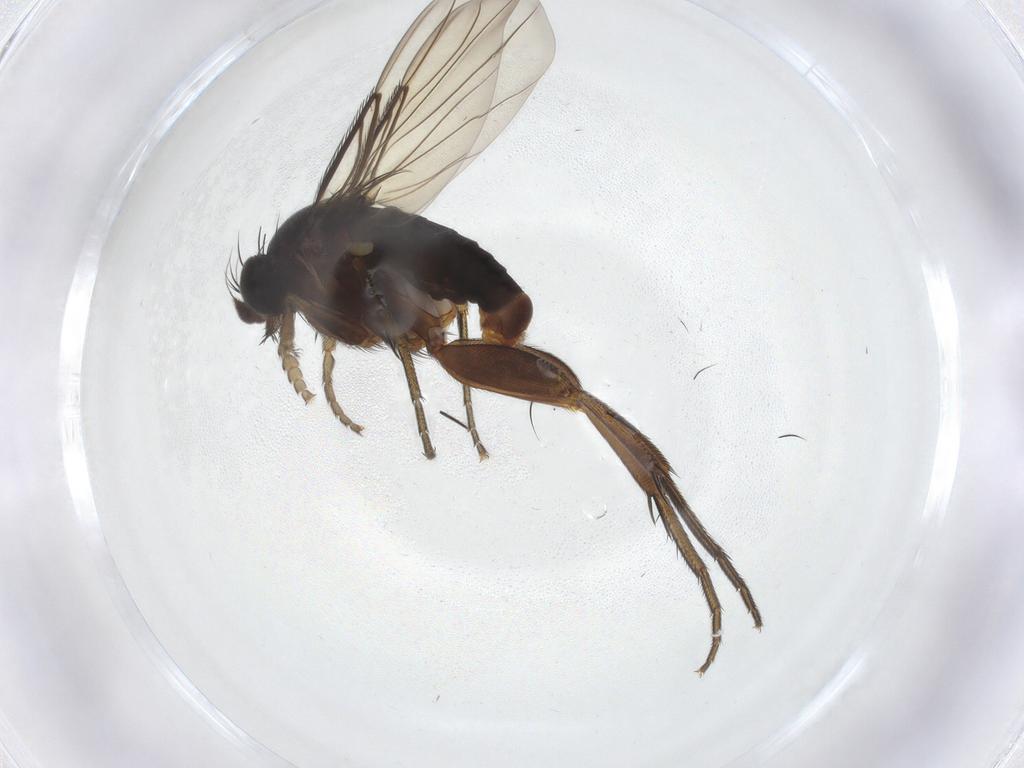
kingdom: Animalia
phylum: Arthropoda
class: Insecta
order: Diptera
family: Phoridae
